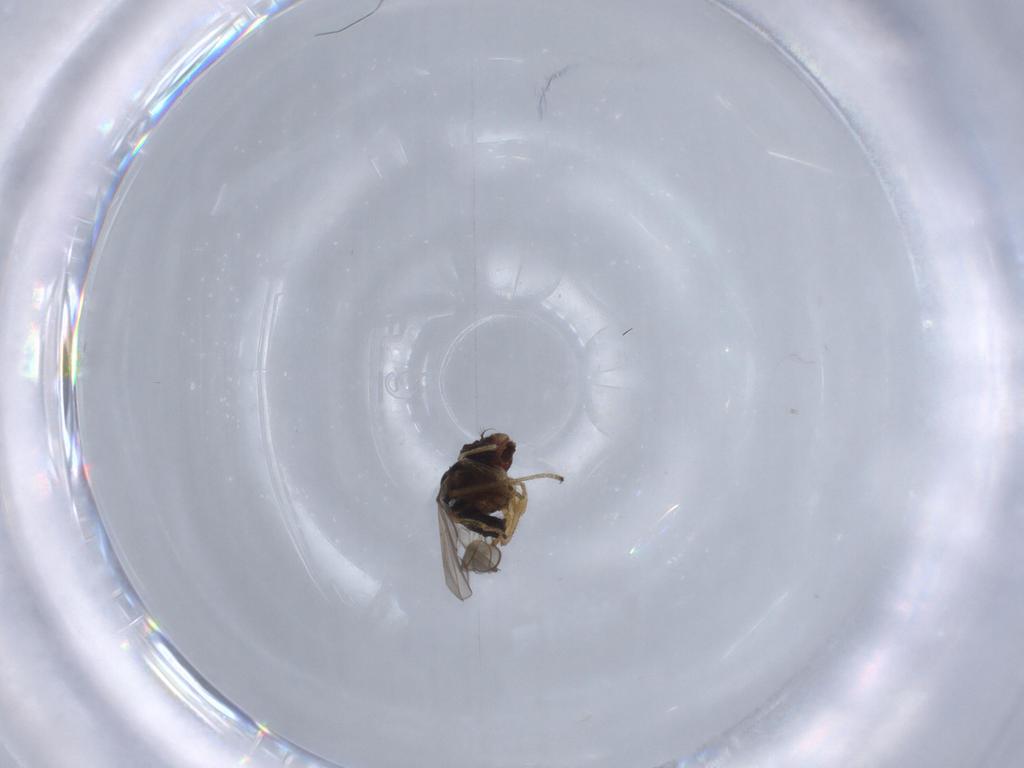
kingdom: Animalia
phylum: Arthropoda
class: Insecta
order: Diptera
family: Ephydridae
